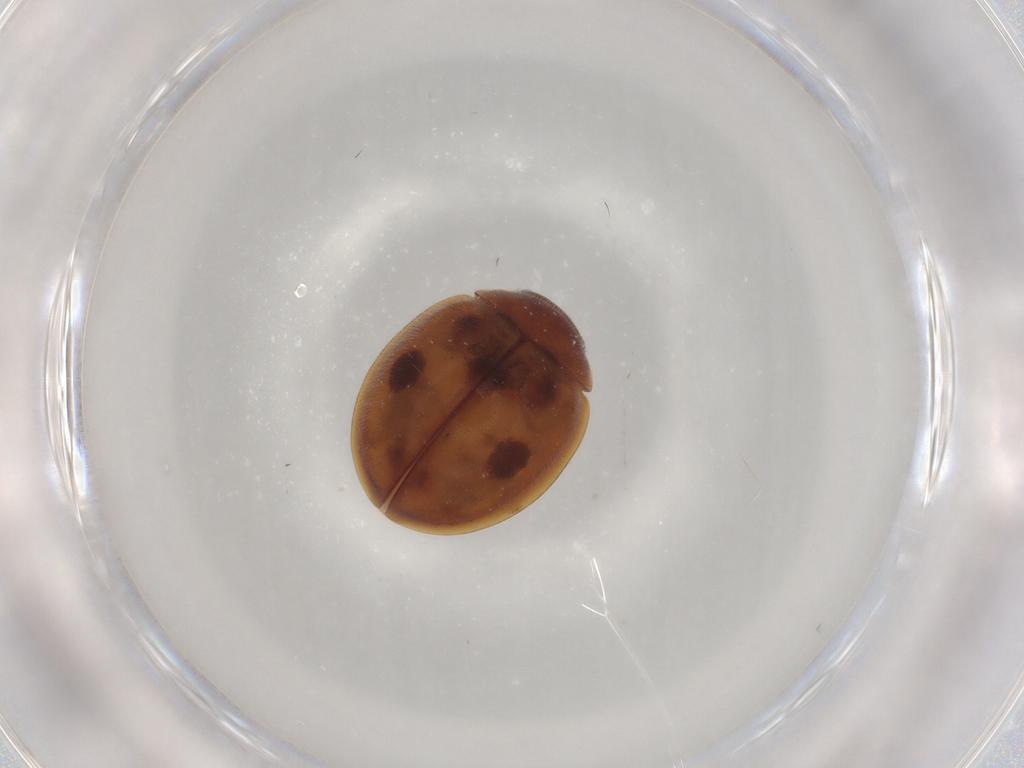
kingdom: Animalia
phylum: Arthropoda
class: Insecta
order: Coleoptera
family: Coccinellidae
